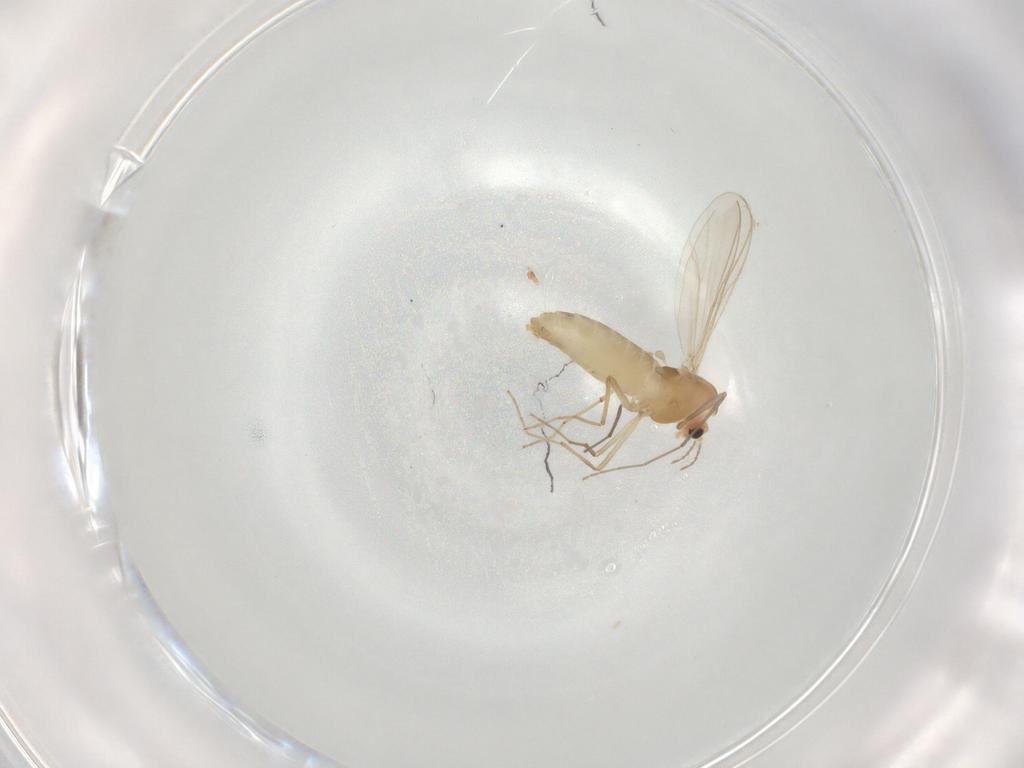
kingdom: Animalia
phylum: Arthropoda
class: Insecta
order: Diptera
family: Chironomidae
